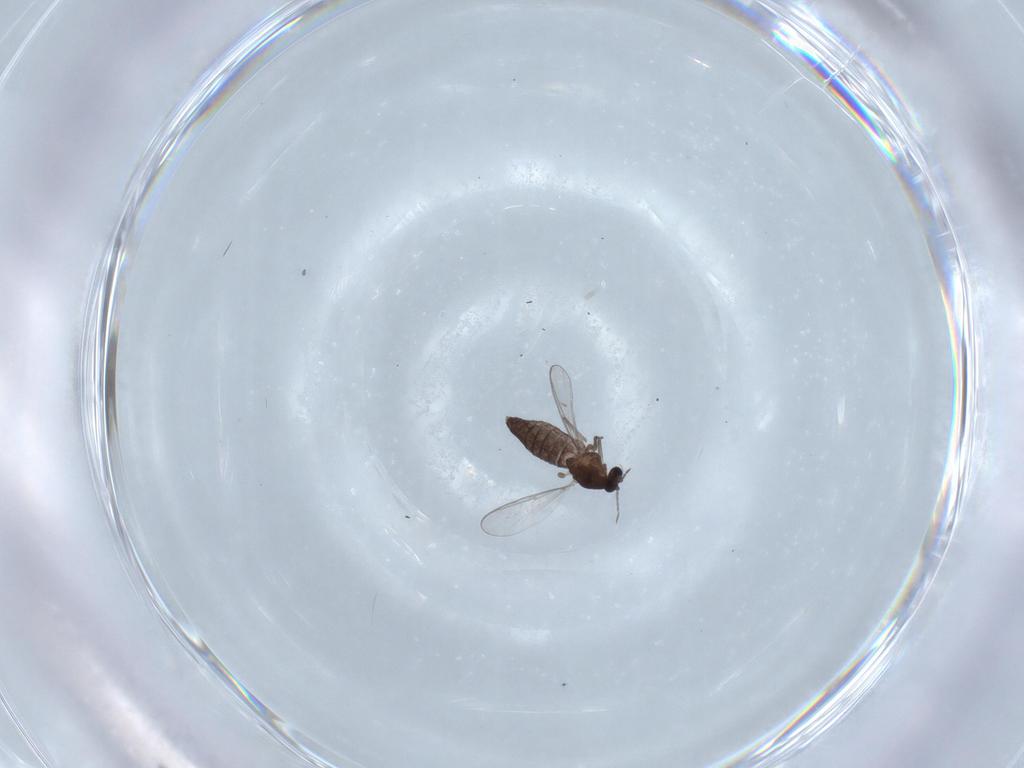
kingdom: Animalia
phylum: Arthropoda
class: Insecta
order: Diptera
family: Chironomidae
